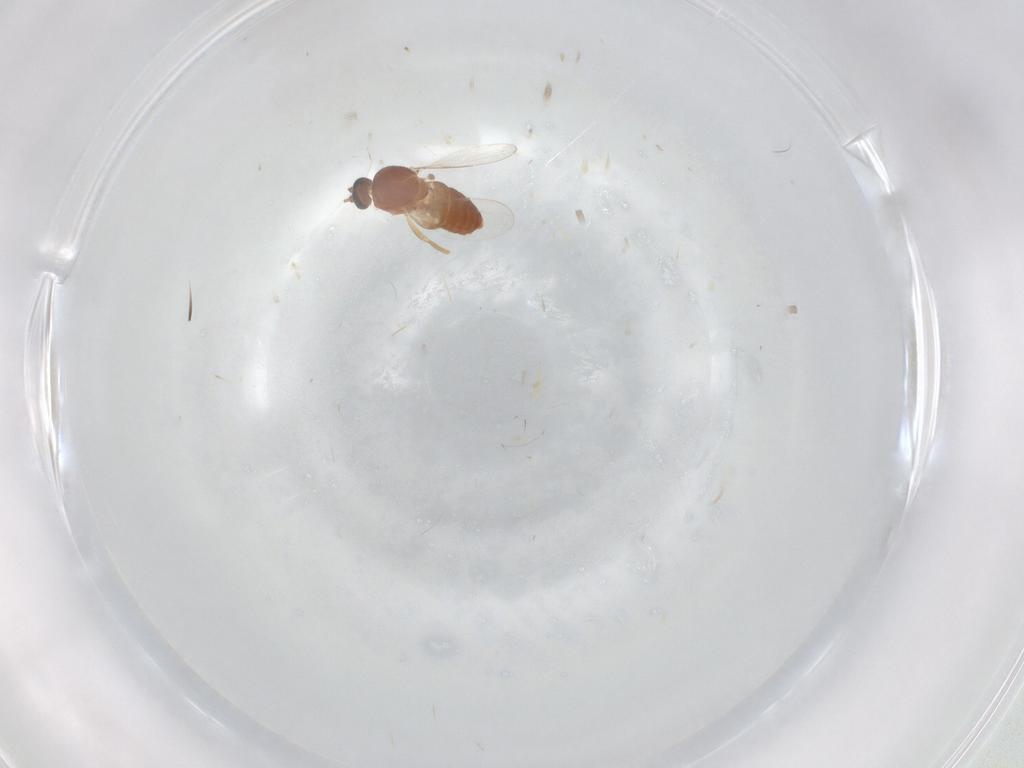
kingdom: Animalia
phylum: Arthropoda
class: Insecta
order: Diptera
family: Ceratopogonidae
